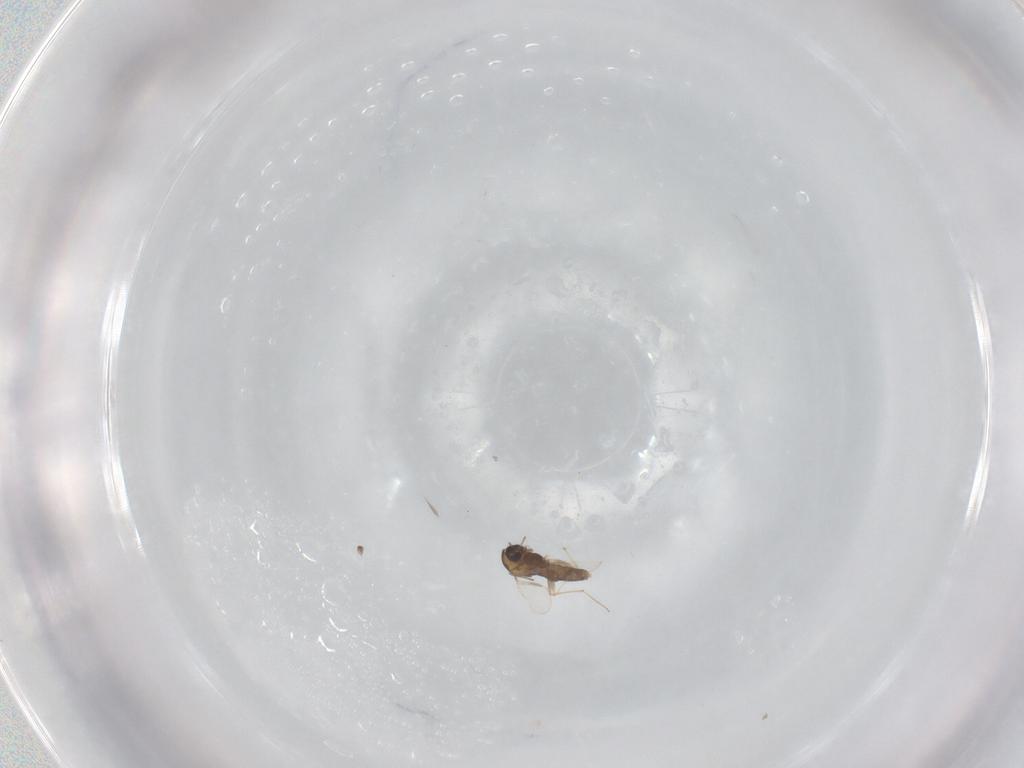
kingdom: Animalia
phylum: Arthropoda
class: Insecta
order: Diptera
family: Chironomidae
